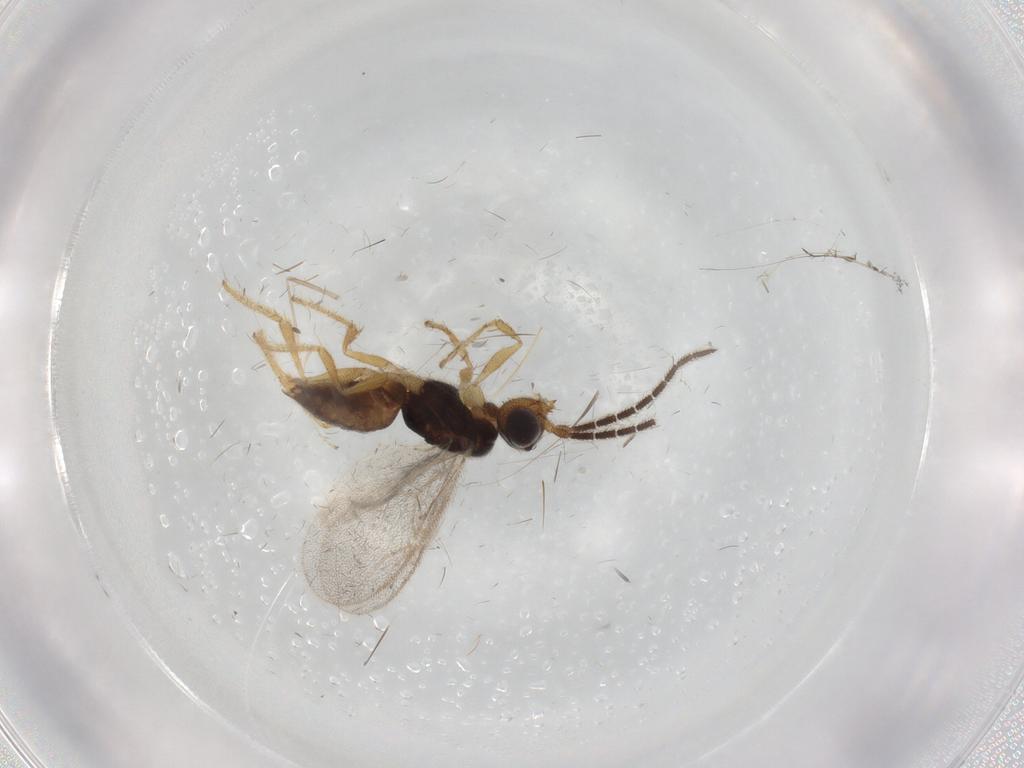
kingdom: Animalia
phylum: Arthropoda
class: Insecta
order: Hymenoptera
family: Dryinidae
